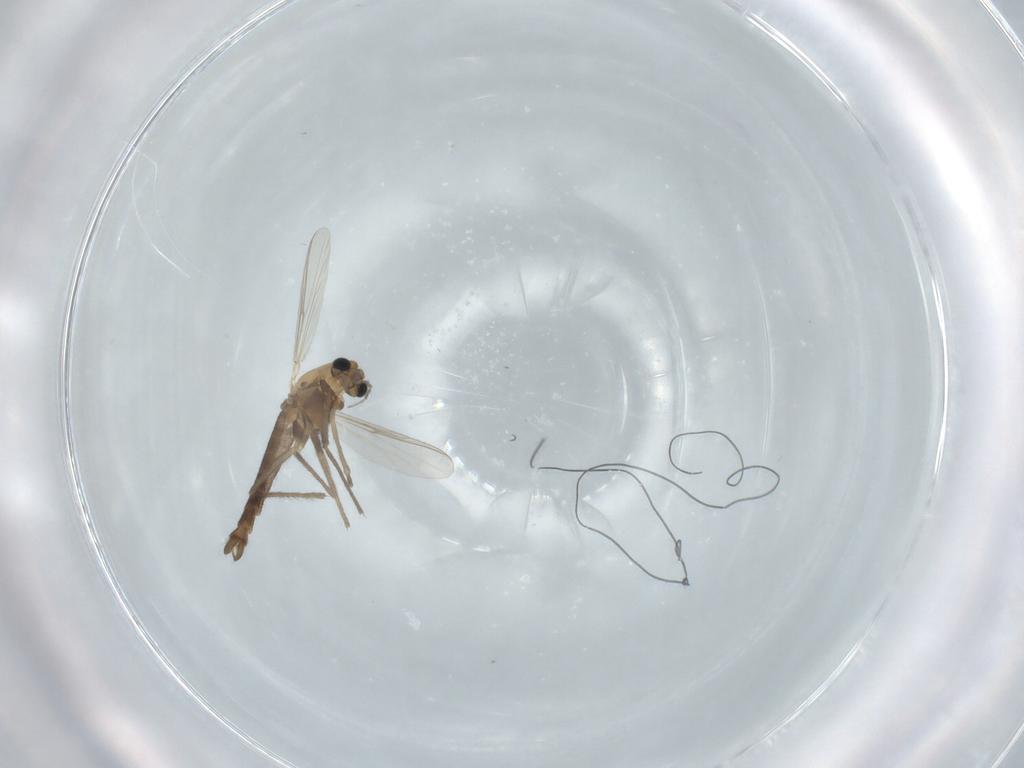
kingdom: Animalia
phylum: Arthropoda
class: Insecta
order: Diptera
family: Chironomidae
